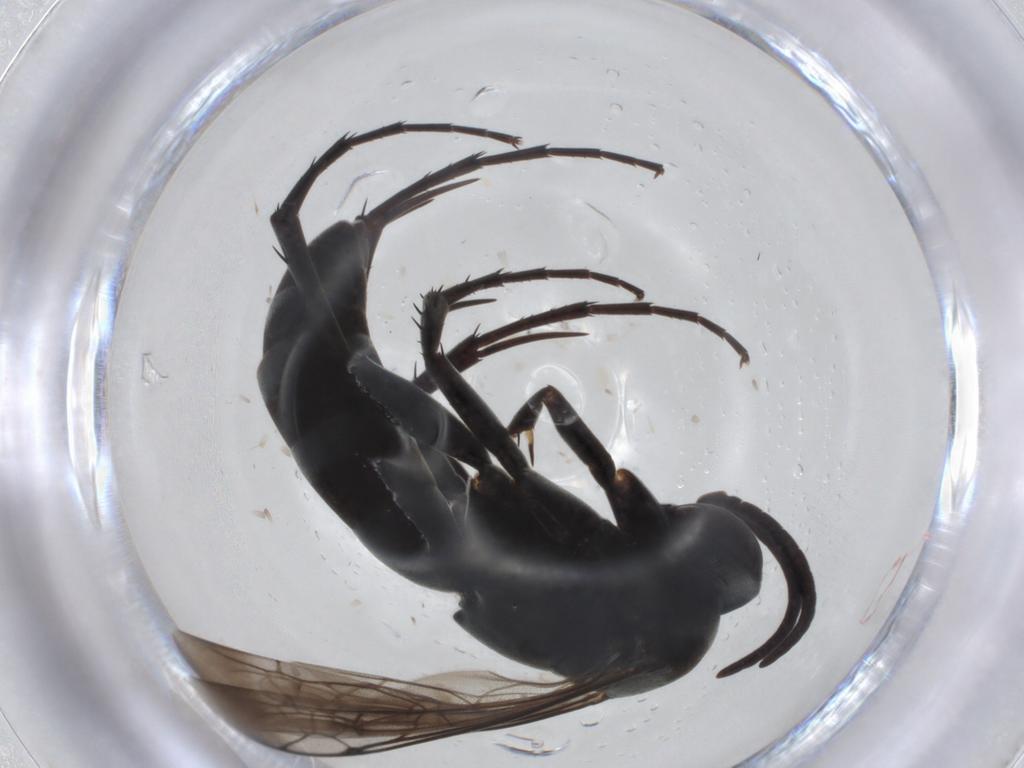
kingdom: Animalia
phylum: Arthropoda
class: Insecta
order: Hymenoptera
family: Pompilidae
